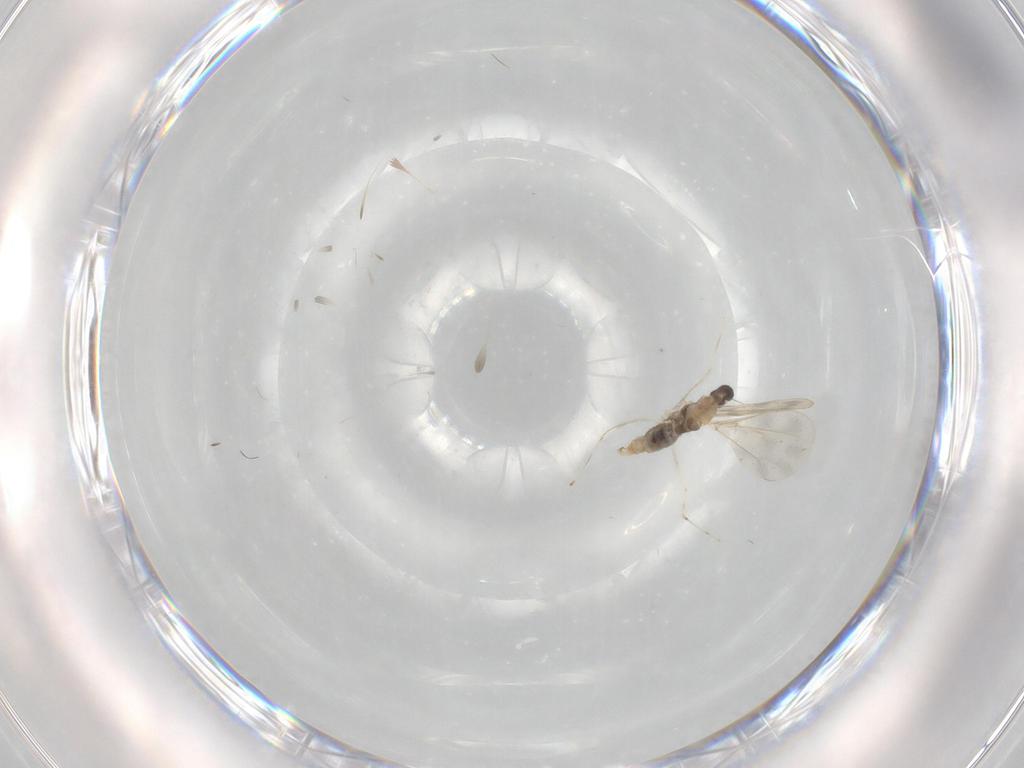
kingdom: Animalia
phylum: Arthropoda
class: Insecta
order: Diptera
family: Cecidomyiidae
